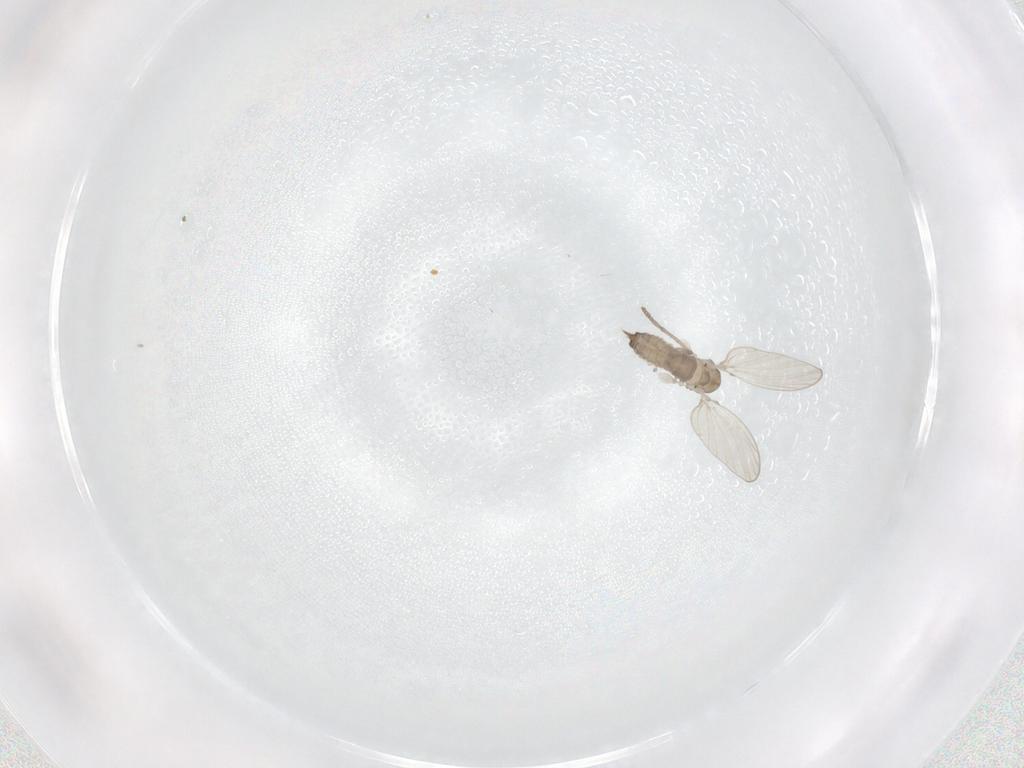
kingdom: Animalia
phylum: Arthropoda
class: Insecta
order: Diptera
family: Psychodidae
